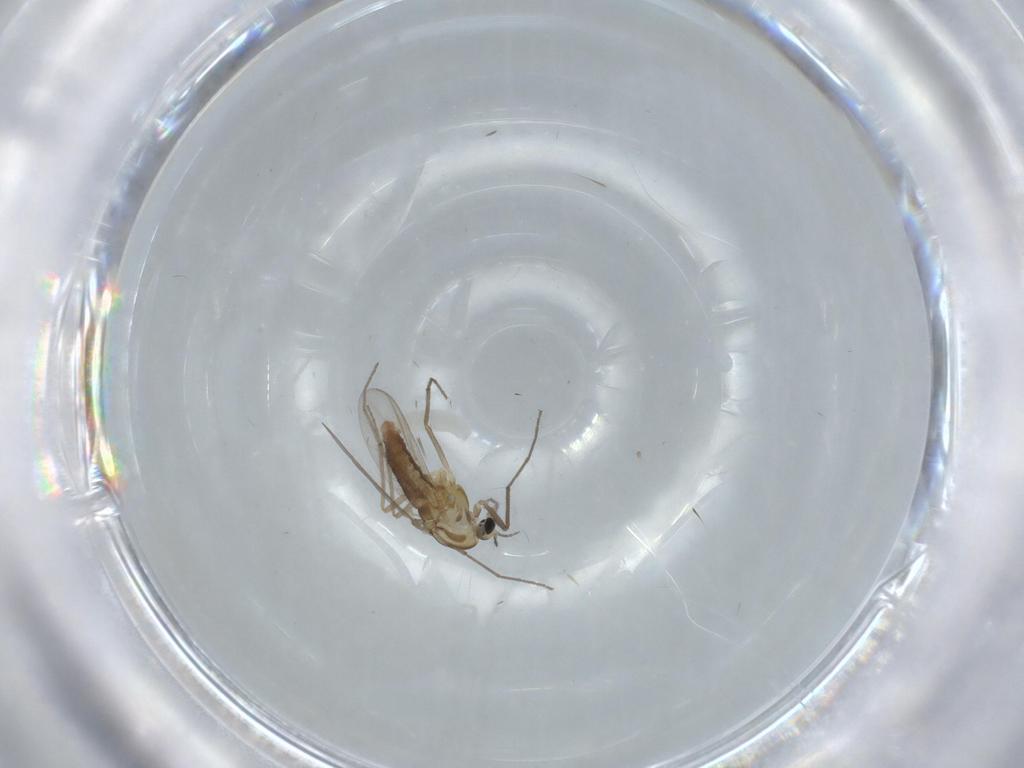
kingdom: Animalia
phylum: Arthropoda
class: Insecta
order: Diptera
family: Chironomidae
